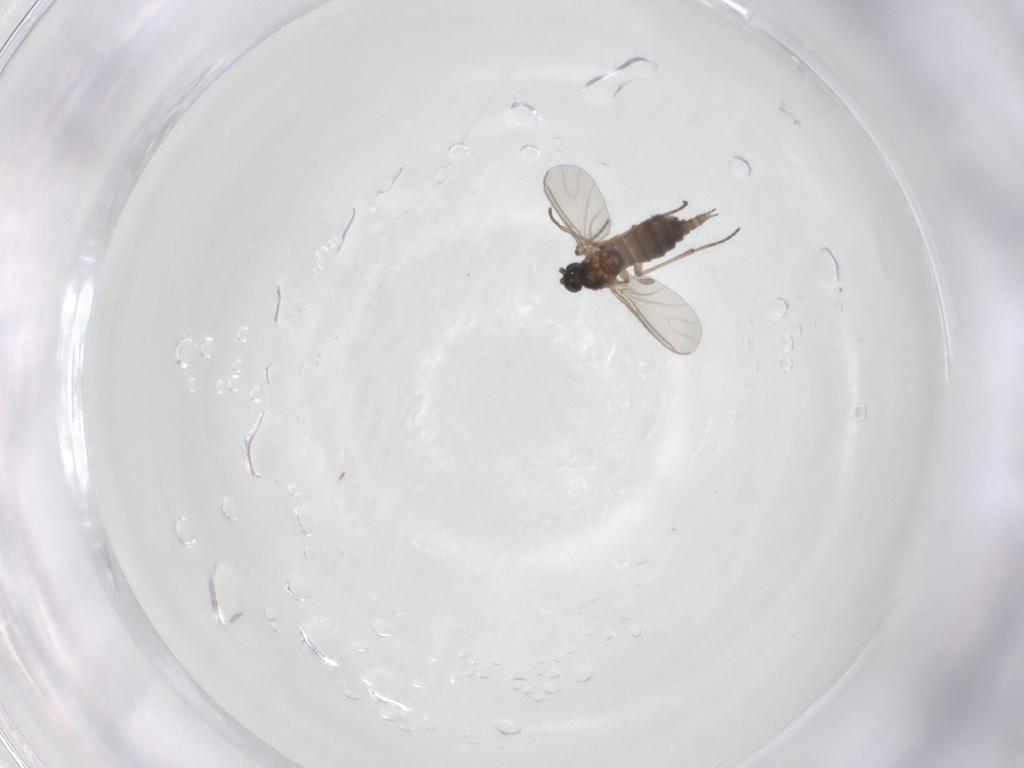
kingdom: Animalia
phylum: Arthropoda
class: Insecta
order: Diptera
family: Sciaridae
